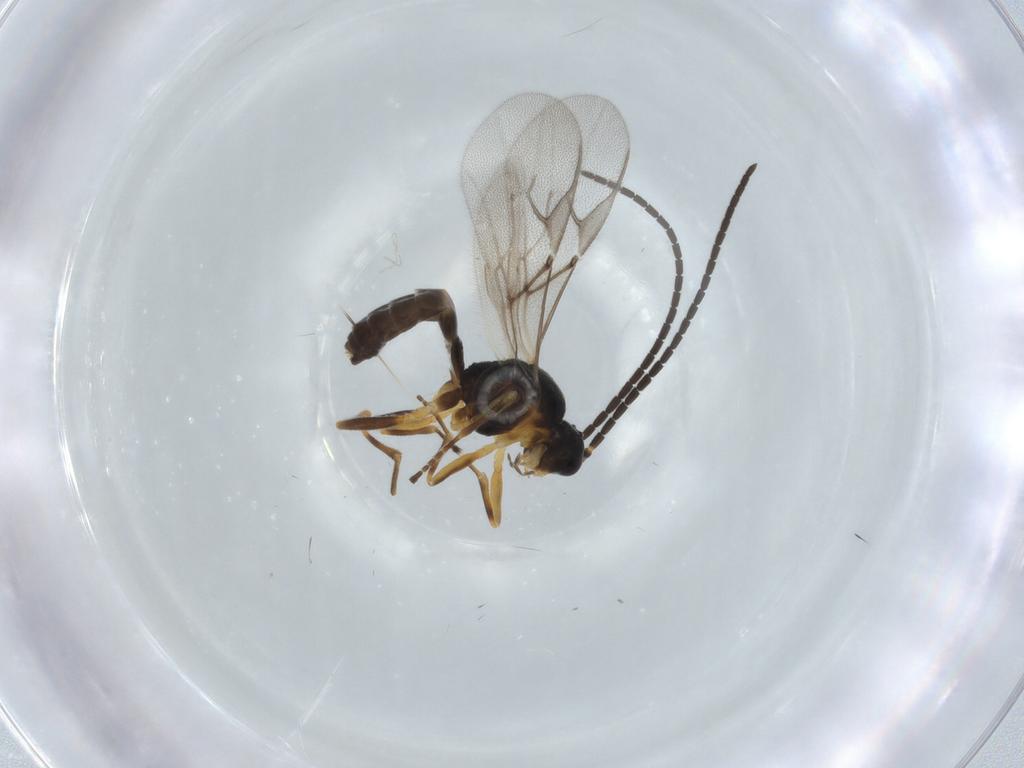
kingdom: Animalia
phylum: Arthropoda
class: Insecta
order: Hymenoptera
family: Braconidae
